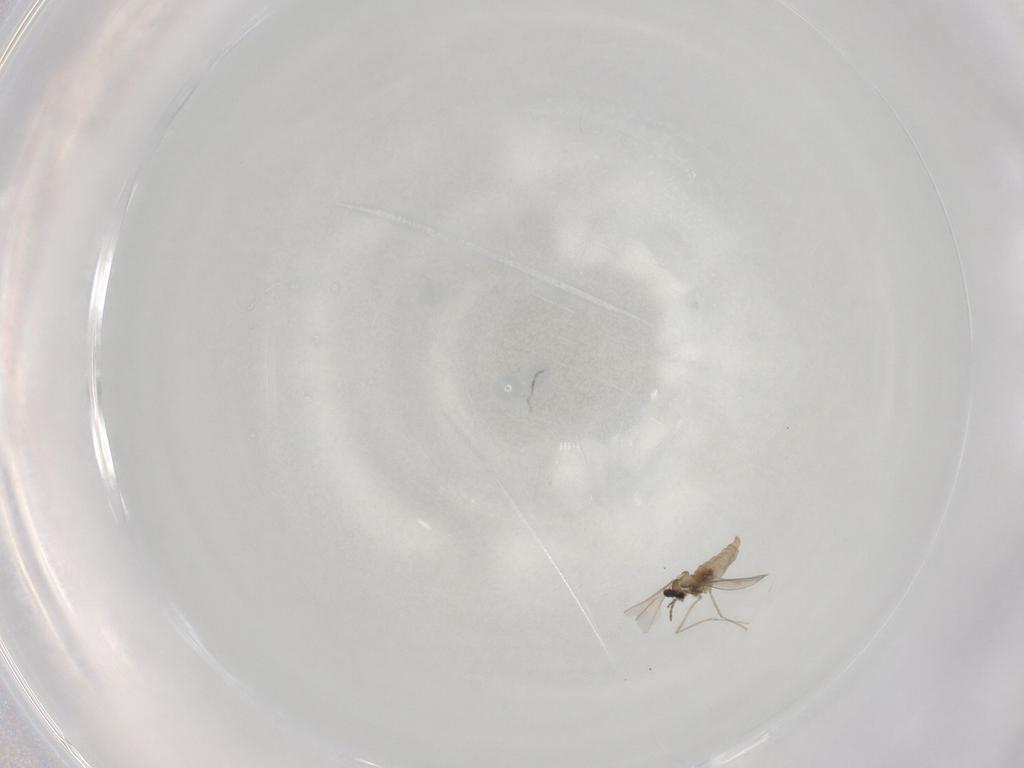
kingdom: Animalia
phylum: Arthropoda
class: Insecta
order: Diptera
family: Cecidomyiidae
